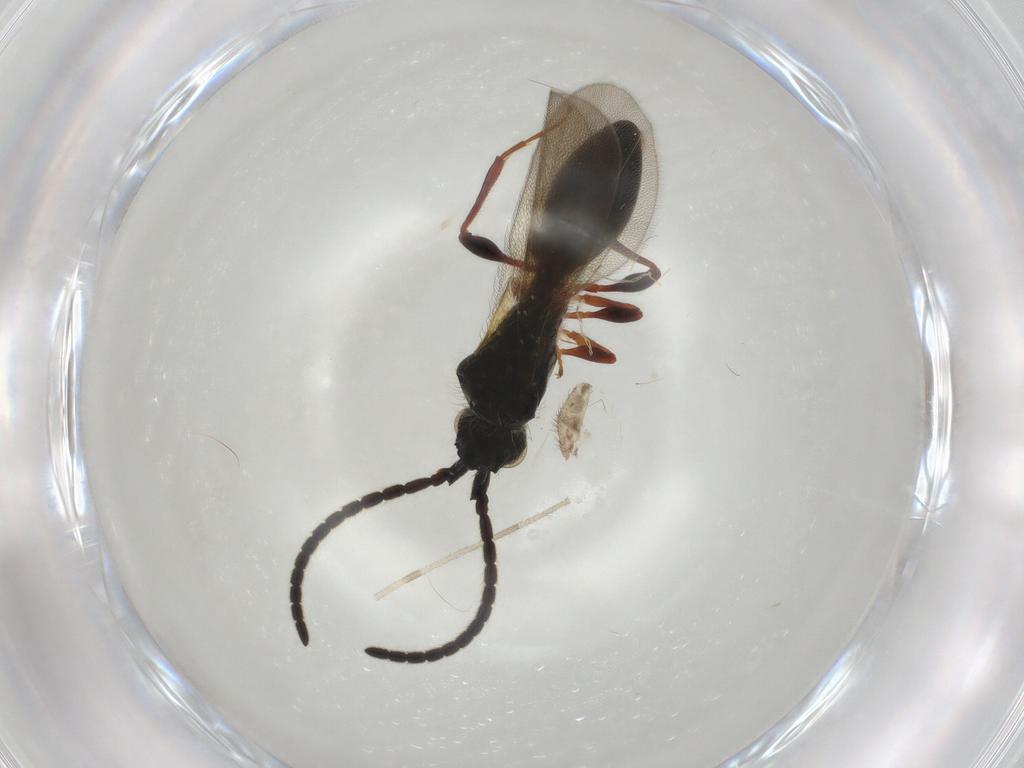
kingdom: Animalia
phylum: Arthropoda
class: Insecta
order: Hymenoptera
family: Diapriidae
